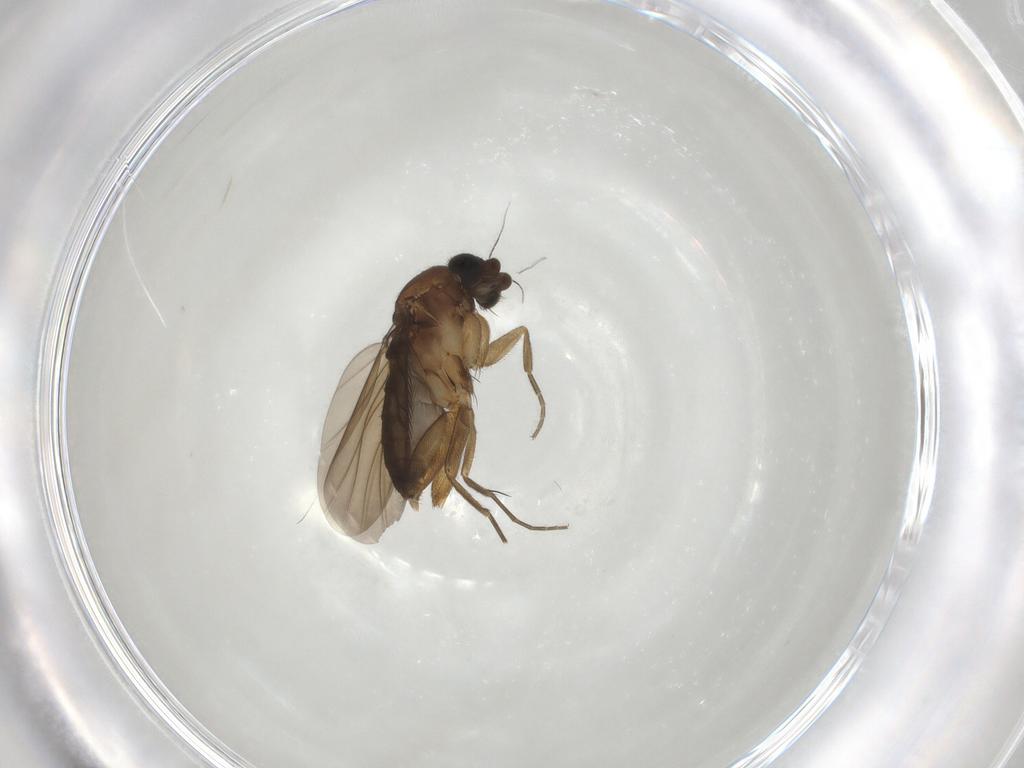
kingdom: Animalia
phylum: Arthropoda
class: Insecta
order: Diptera
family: Phoridae
